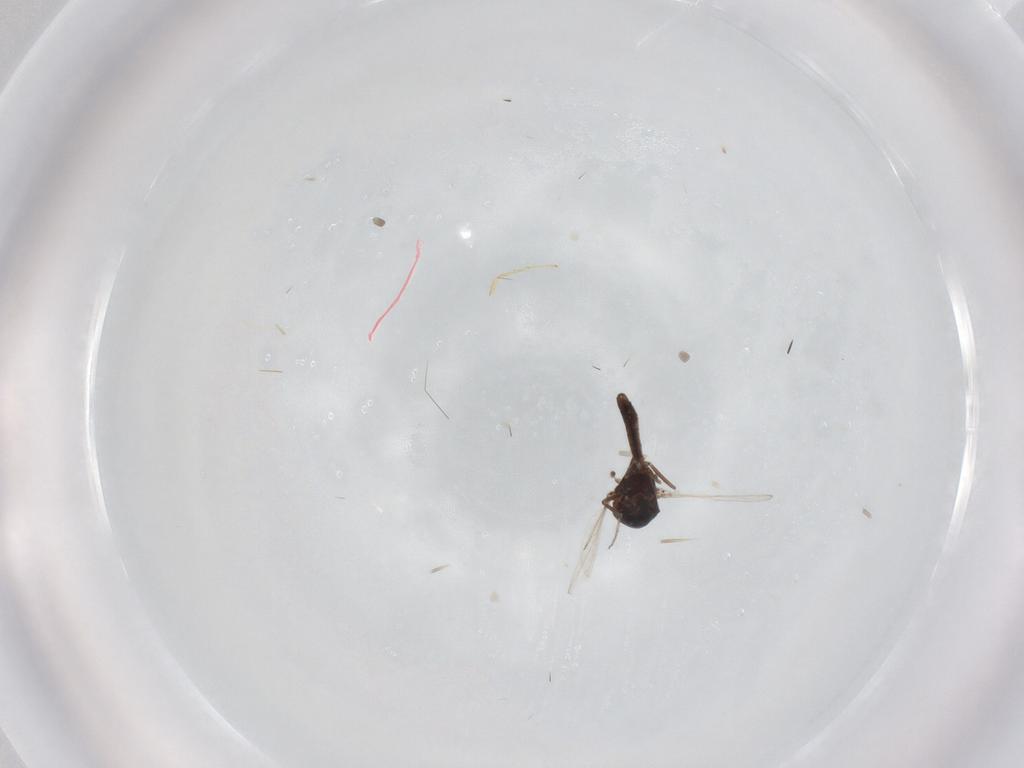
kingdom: Animalia
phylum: Arthropoda
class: Insecta
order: Diptera
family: Ceratopogonidae
